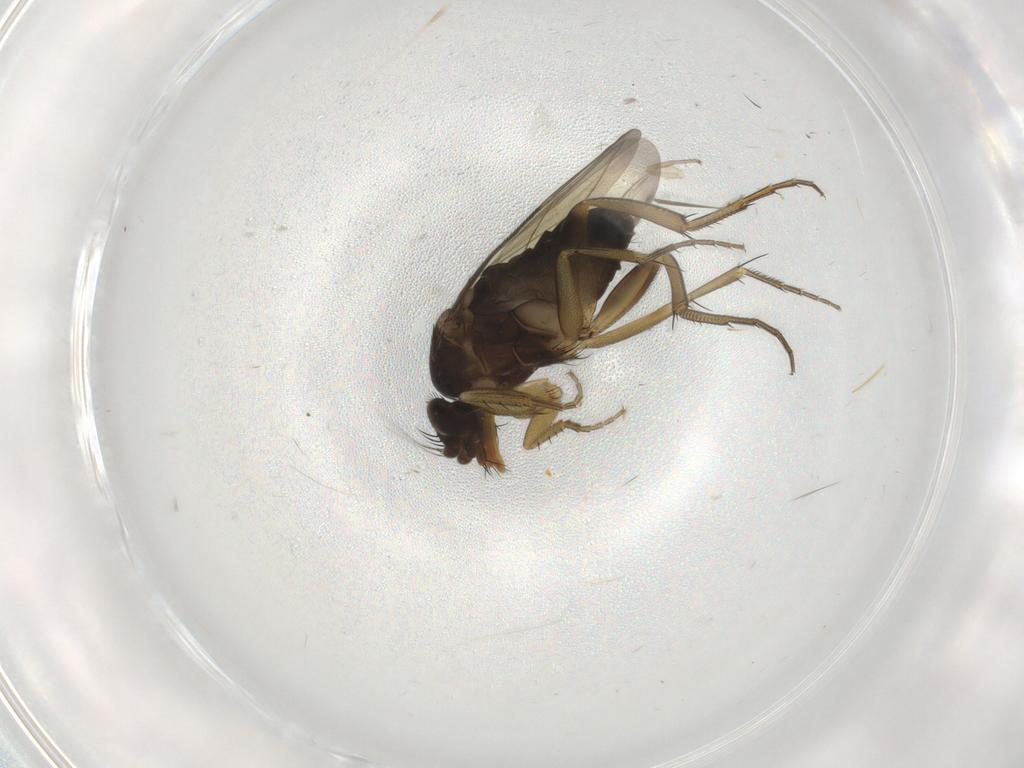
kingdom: Animalia
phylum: Arthropoda
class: Insecta
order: Diptera
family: Phoridae
